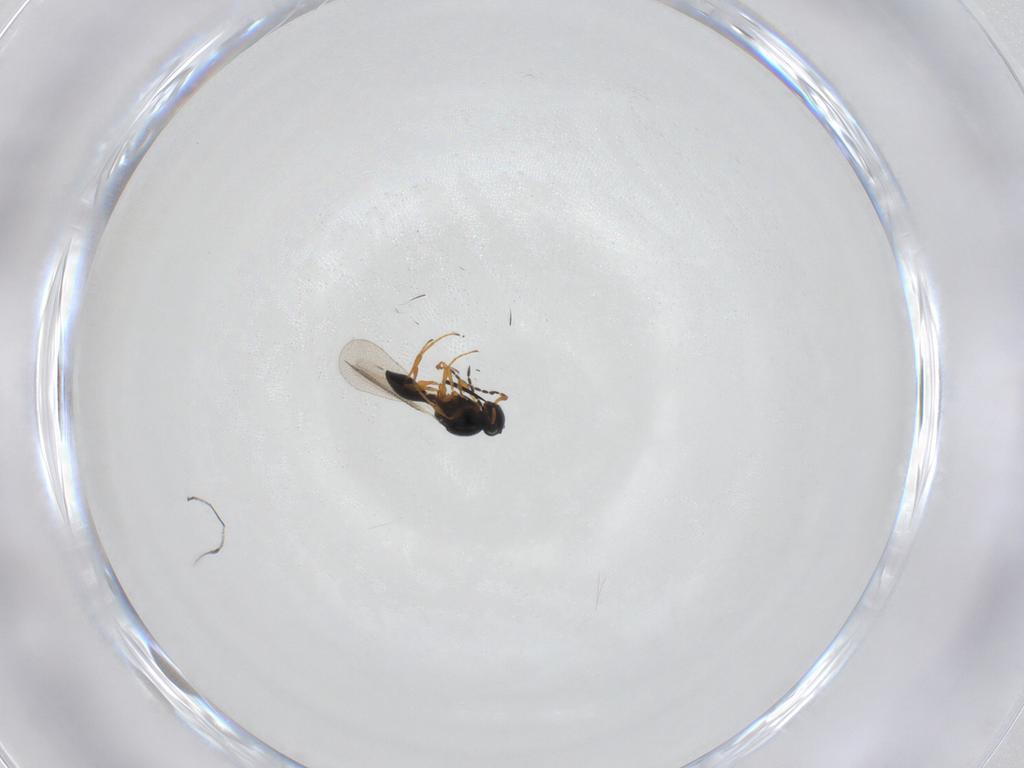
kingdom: Animalia
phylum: Arthropoda
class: Insecta
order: Hymenoptera
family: Platygastridae
